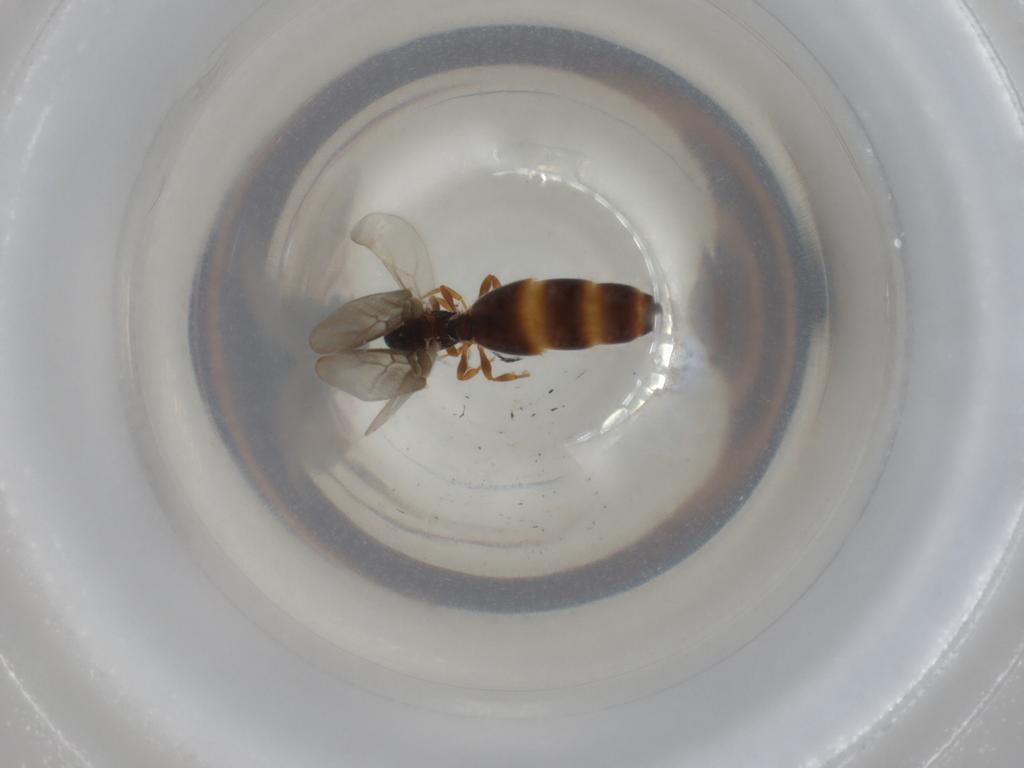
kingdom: Animalia
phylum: Arthropoda
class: Insecta
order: Hymenoptera
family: Formicidae
